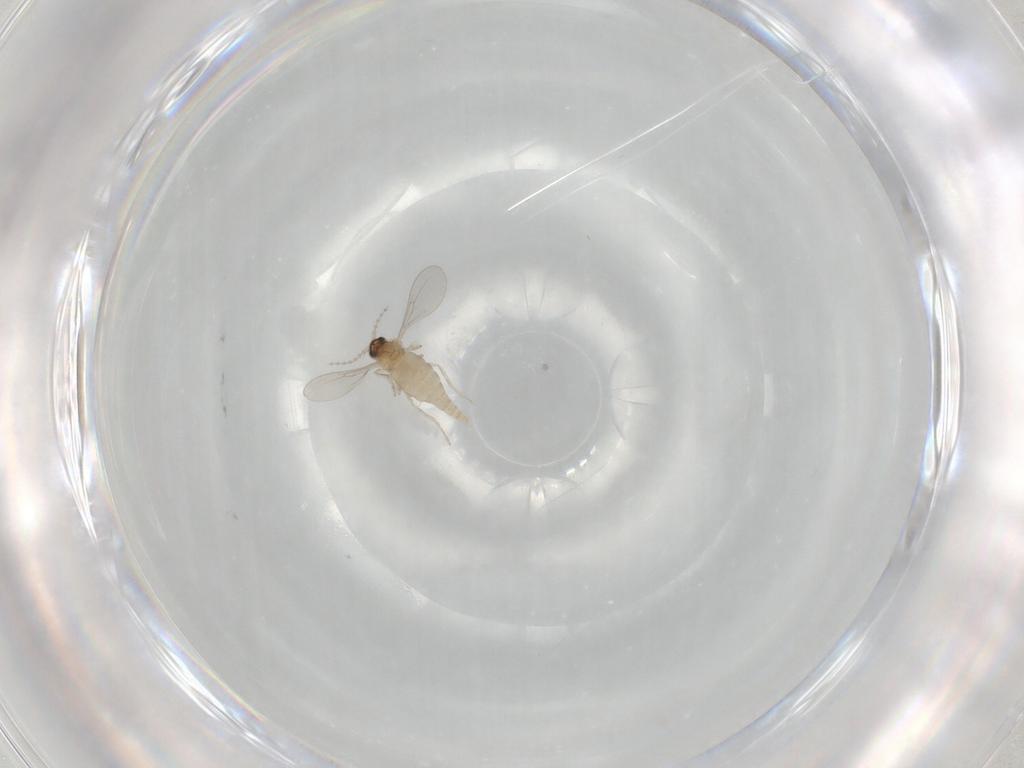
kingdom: Animalia
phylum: Arthropoda
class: Insecta
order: Diptera
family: Cecidomyiidae
